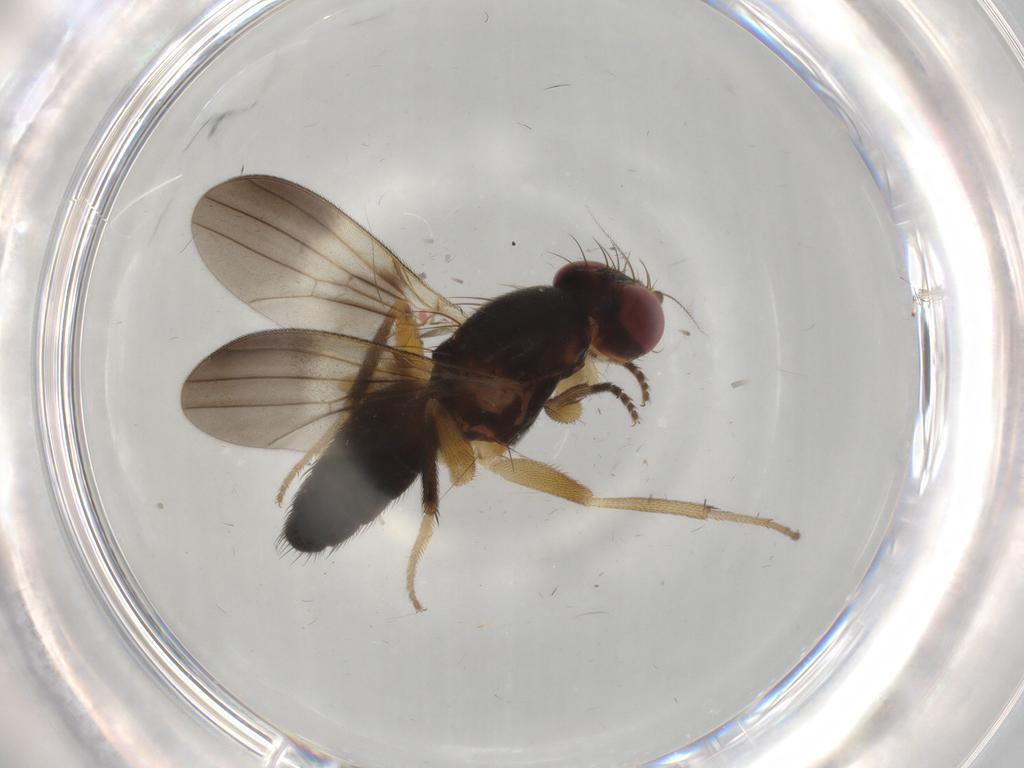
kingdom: Animalia
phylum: Arthropoda
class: Insecta
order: Diptera
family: Clusiidae
